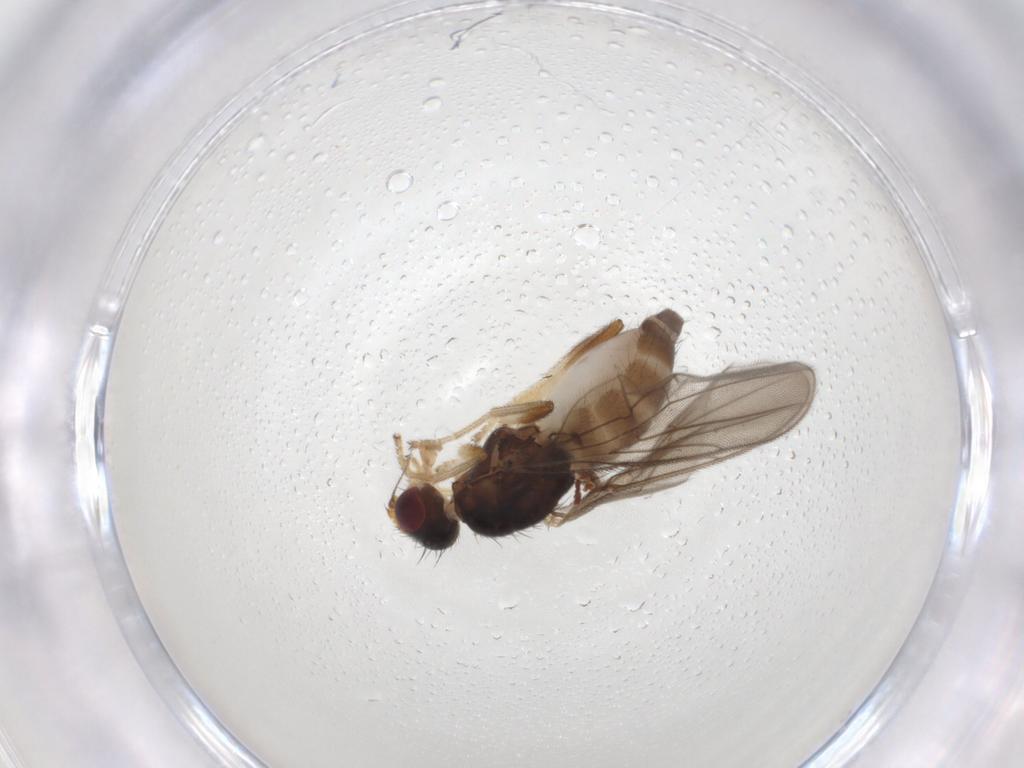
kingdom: Animalia
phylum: Arthropoda
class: Insecta
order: Diptera
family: Chloropidae
